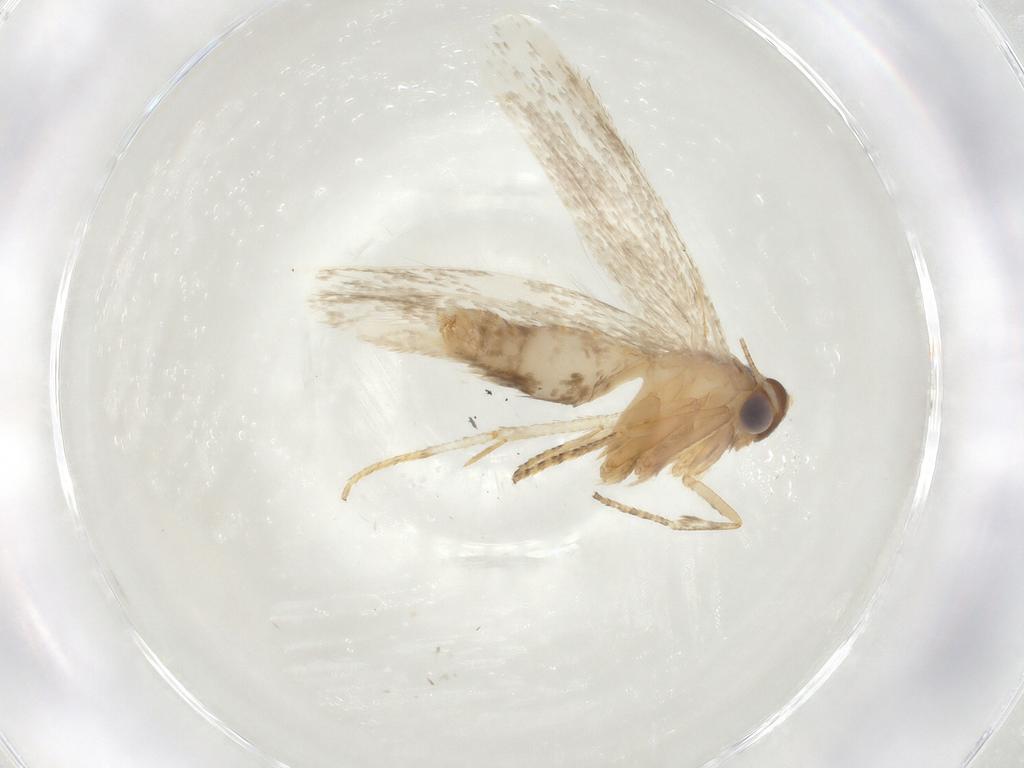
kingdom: Animalia
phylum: Arthropoda
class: Insecta
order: Lepidoptera
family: Blastobasidae
